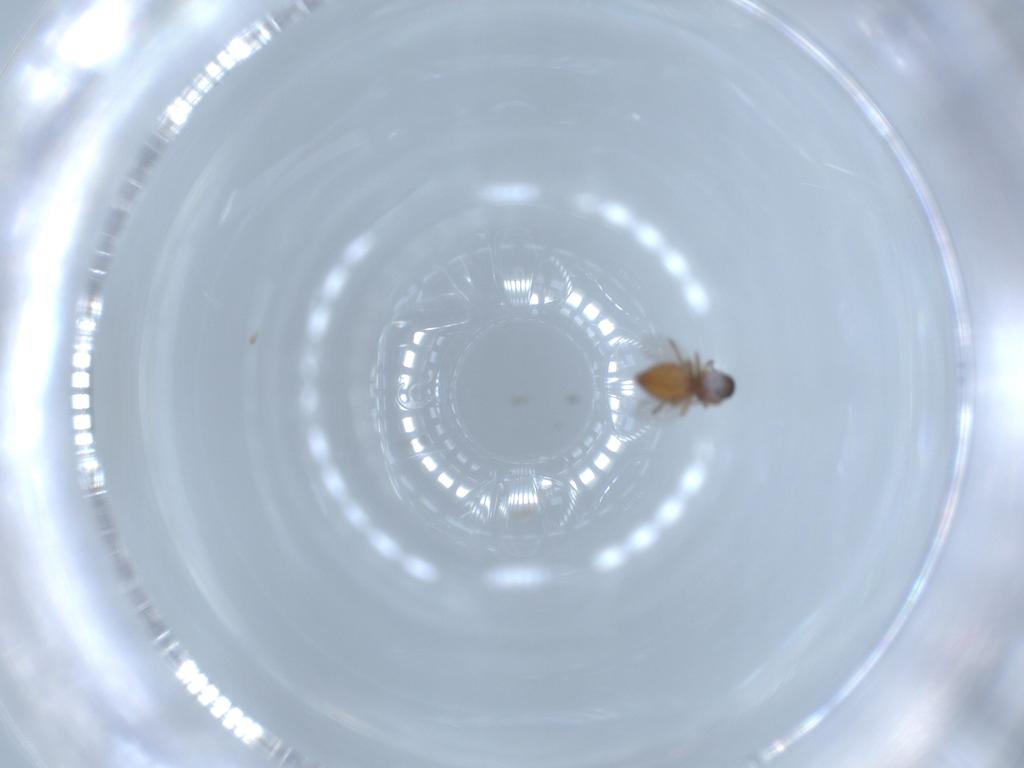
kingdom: Animalia
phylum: Arthropoda
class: Insecta
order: Diptera
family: Ceratopogonidae
